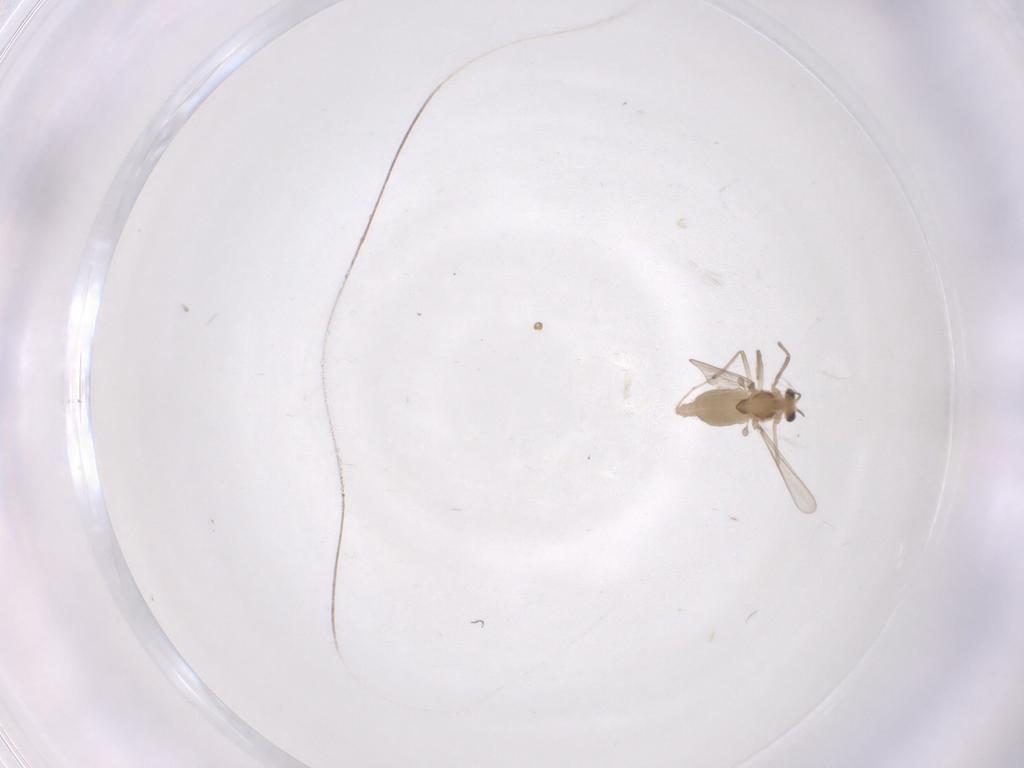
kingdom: Animalia
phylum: Arthropoda
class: Insecta
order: Diptera
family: Chironomidae
